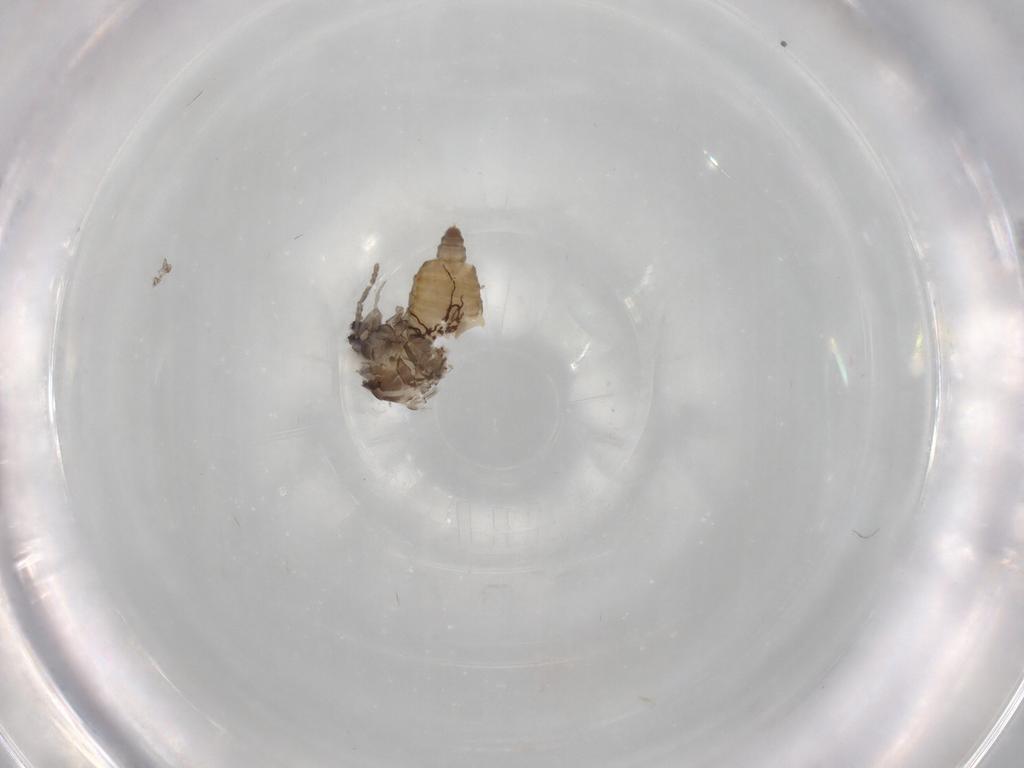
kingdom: Animalia
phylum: Arthropoda
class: Insecta
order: Diptera
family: Psychodidae
